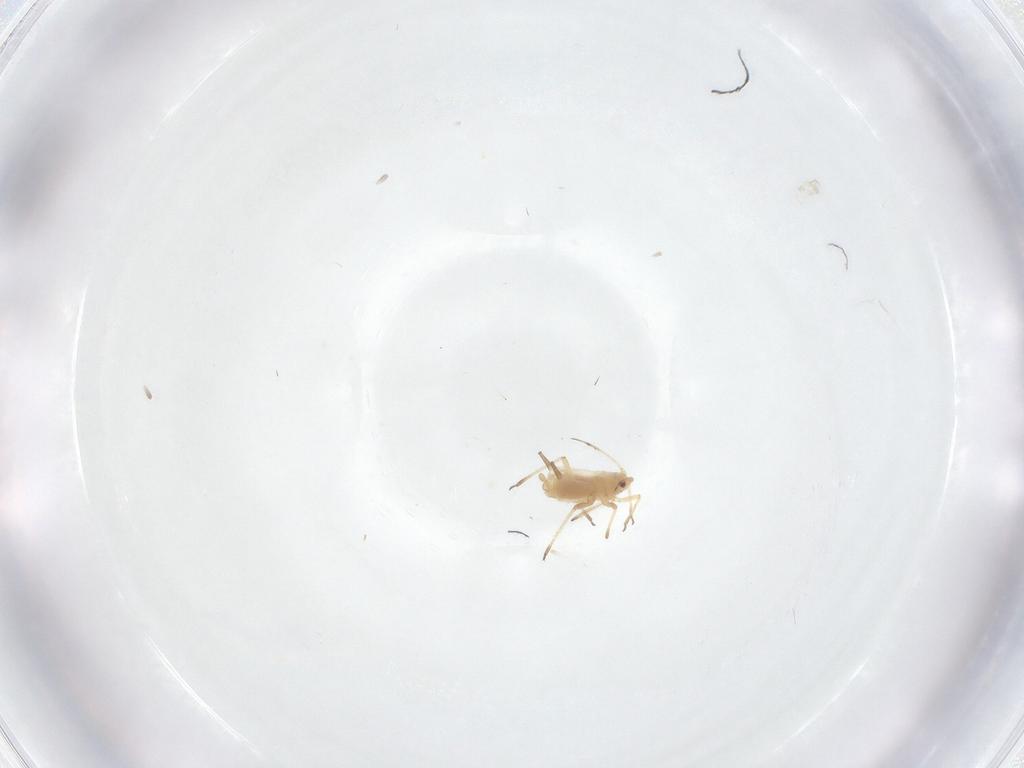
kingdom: Animalia
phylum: Arthropoda
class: Insecta
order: Hemiptera
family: Aphididae
